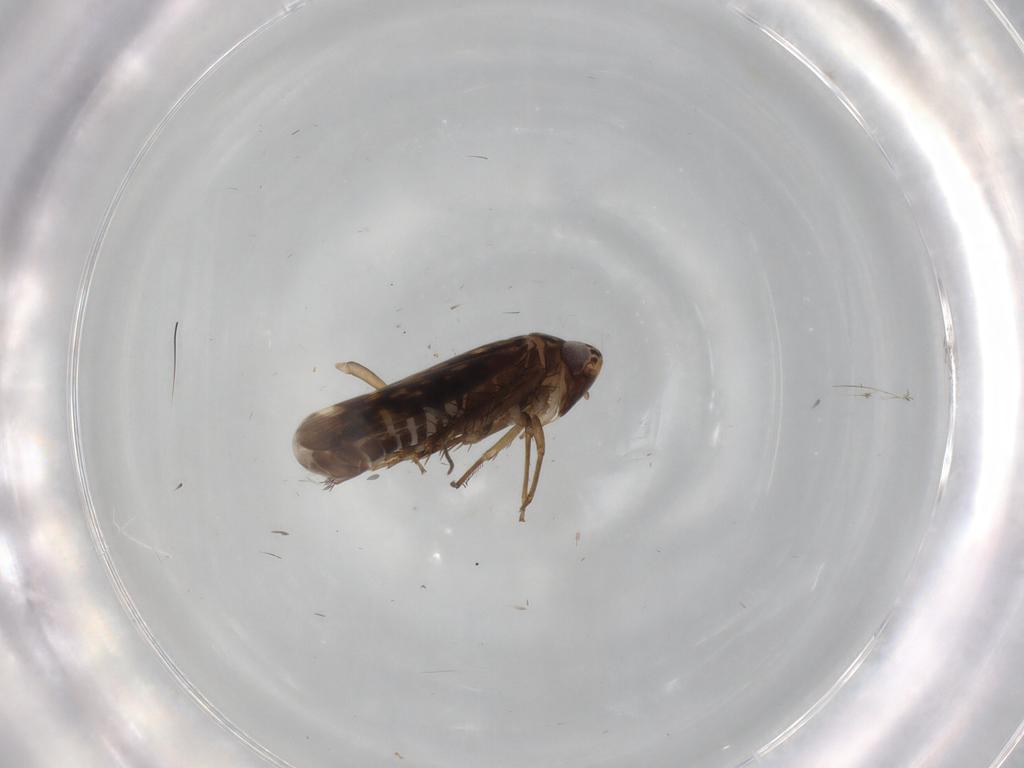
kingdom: Animalia
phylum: Arthropoda
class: Insecta
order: Hemiptera
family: Cicadellidae
